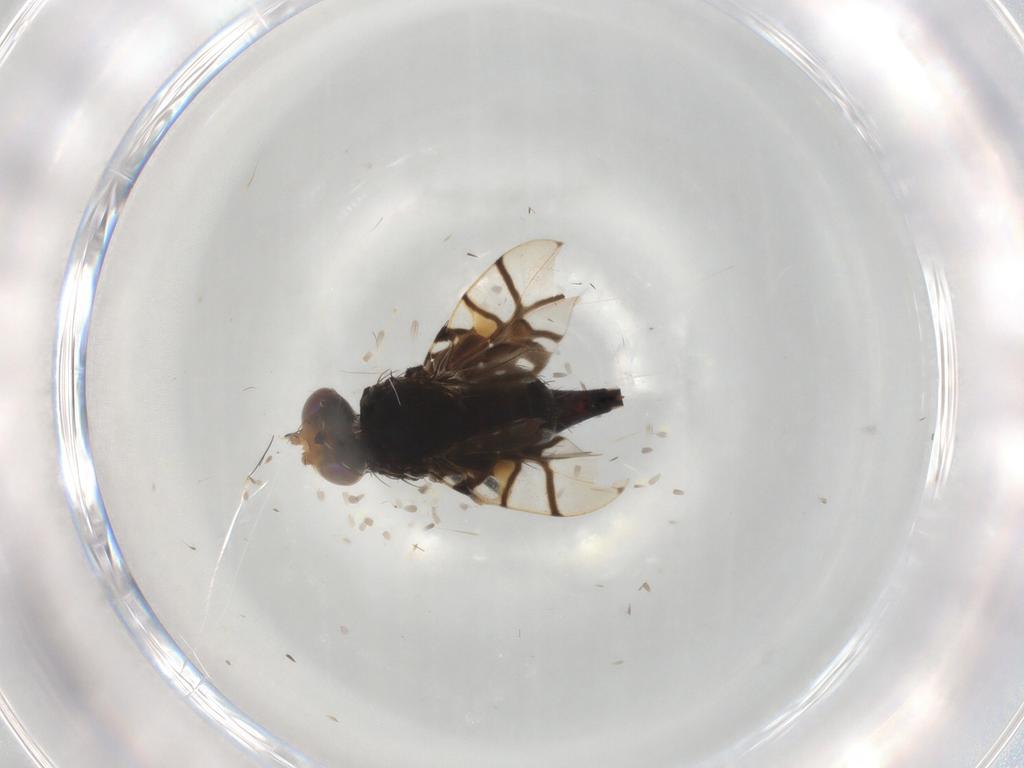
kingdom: Animalia
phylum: Arthropoda
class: Insecta
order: Diptera
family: Tephritidae
